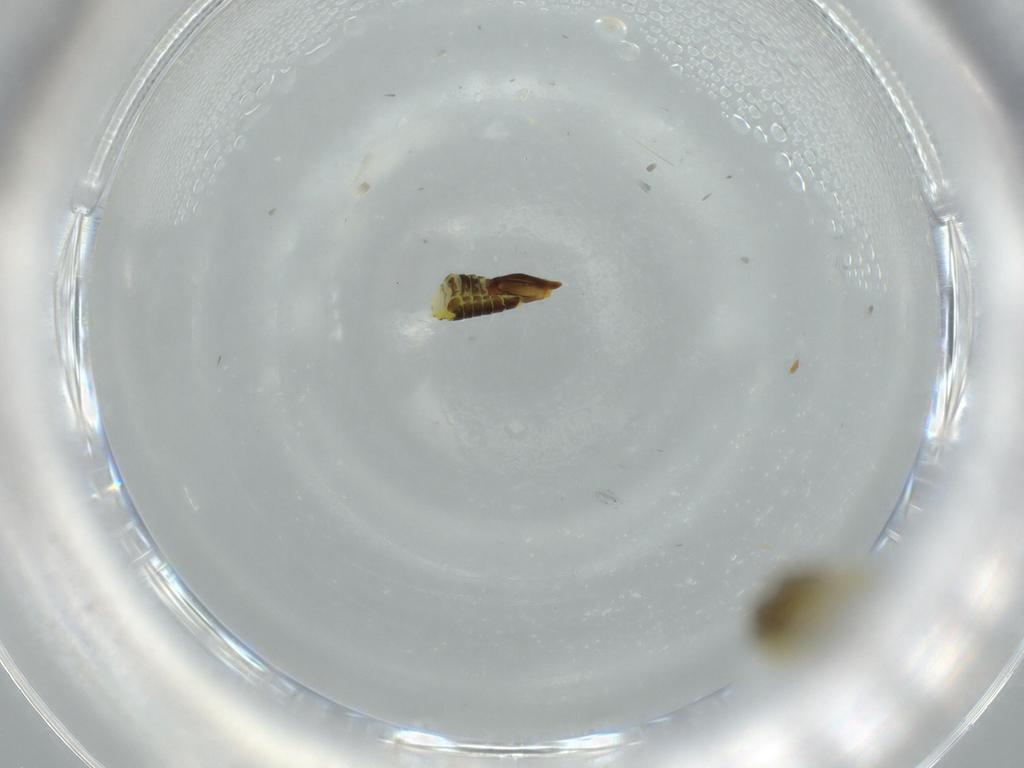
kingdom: Animalia
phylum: Arthropoda
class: Insecta
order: Hemiptera
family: Cicadellidae
